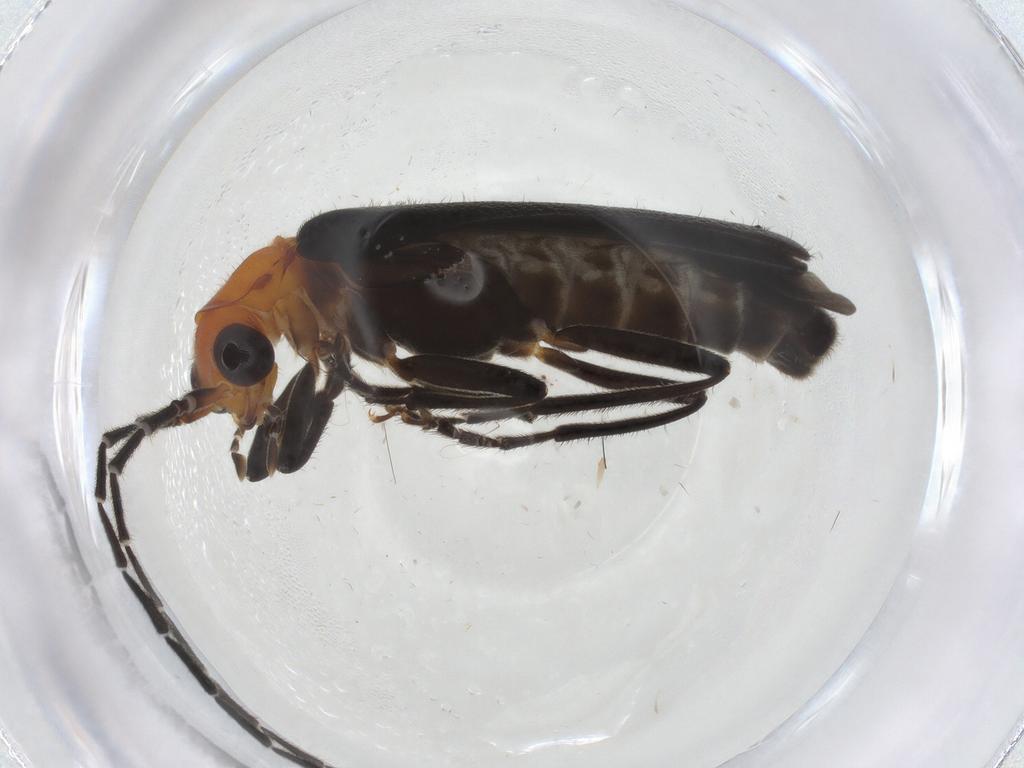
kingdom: Animalia
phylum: Arthropoda
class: Insecta
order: Coleoptera
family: Cantharidae
